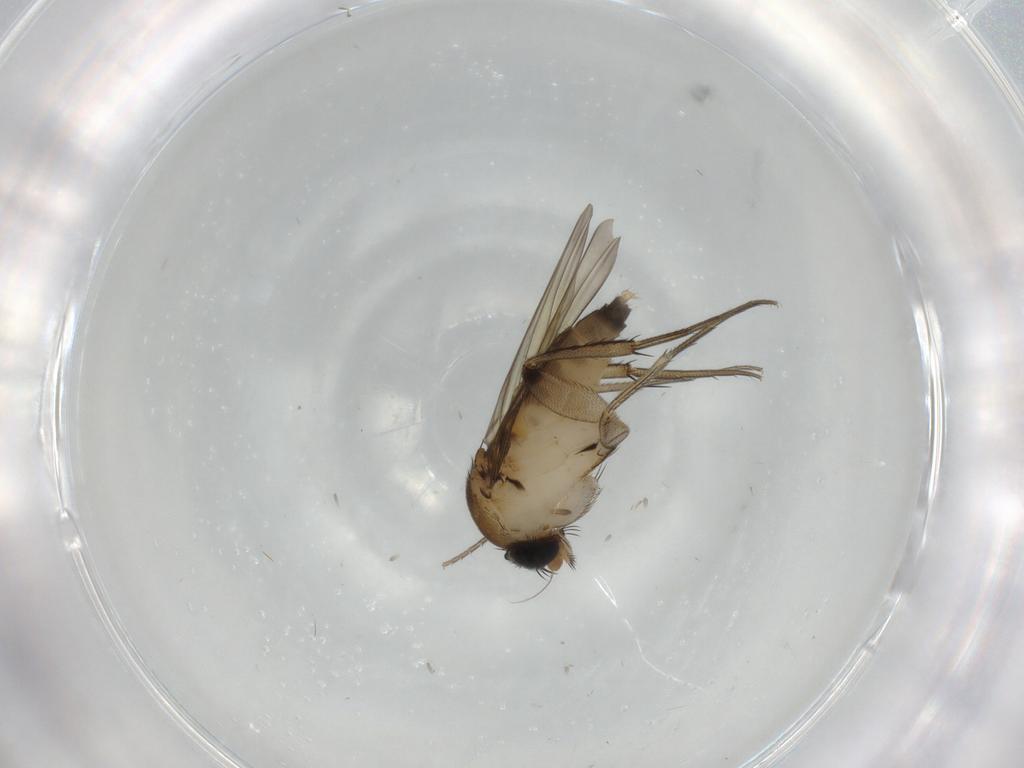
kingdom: Animalia
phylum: Arthropoda
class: Insecta
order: Diptera
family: Phoridae
